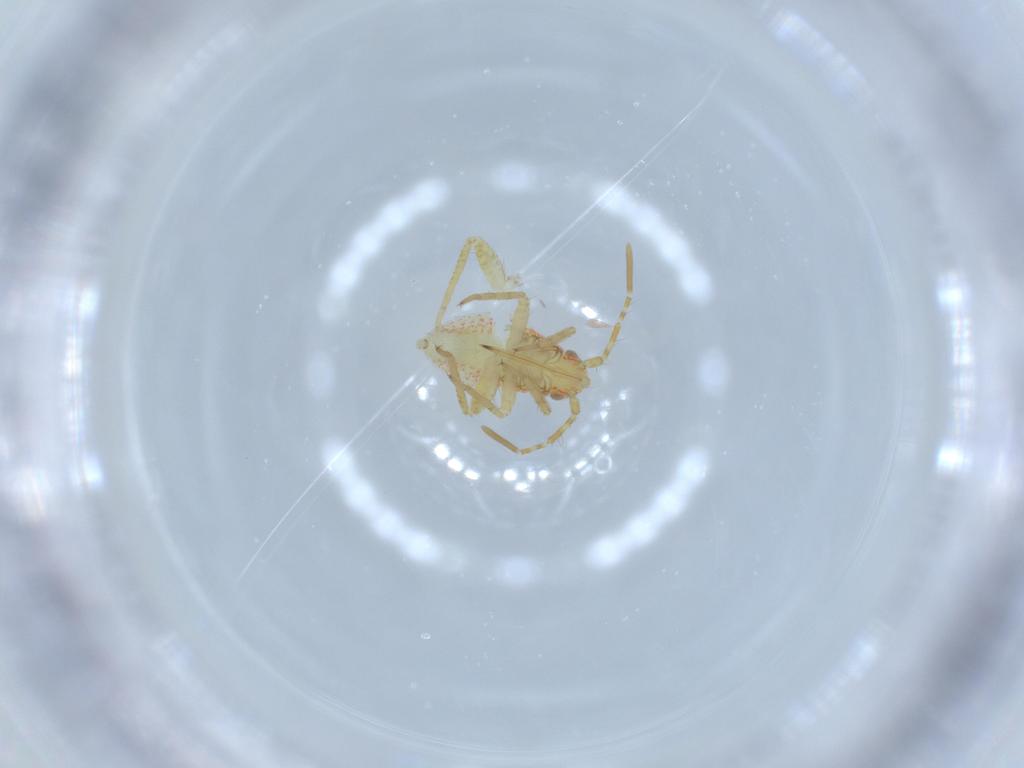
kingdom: Animalia
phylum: Arthropoda
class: Insecta
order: Hemiptera
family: Miridae
